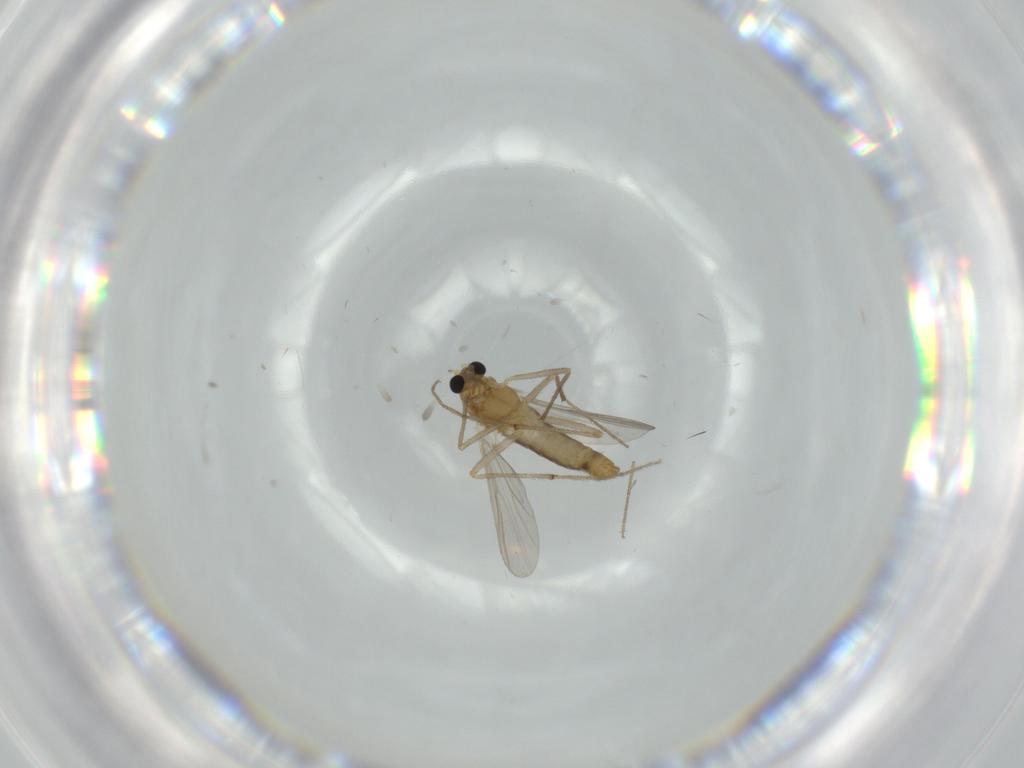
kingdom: Animalia
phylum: Arthropoda
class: Insecta
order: Diptera
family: Chironomidae
